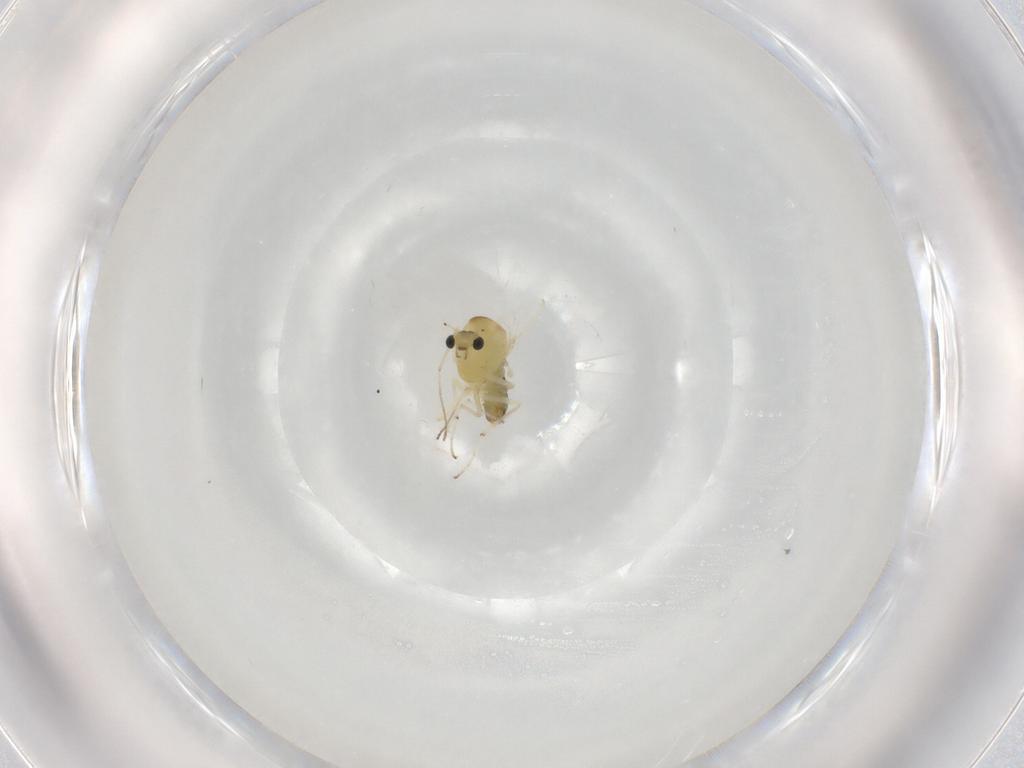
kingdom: Animalia
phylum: Arthropoda
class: Insecta
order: Diptera
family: Chironomidae
